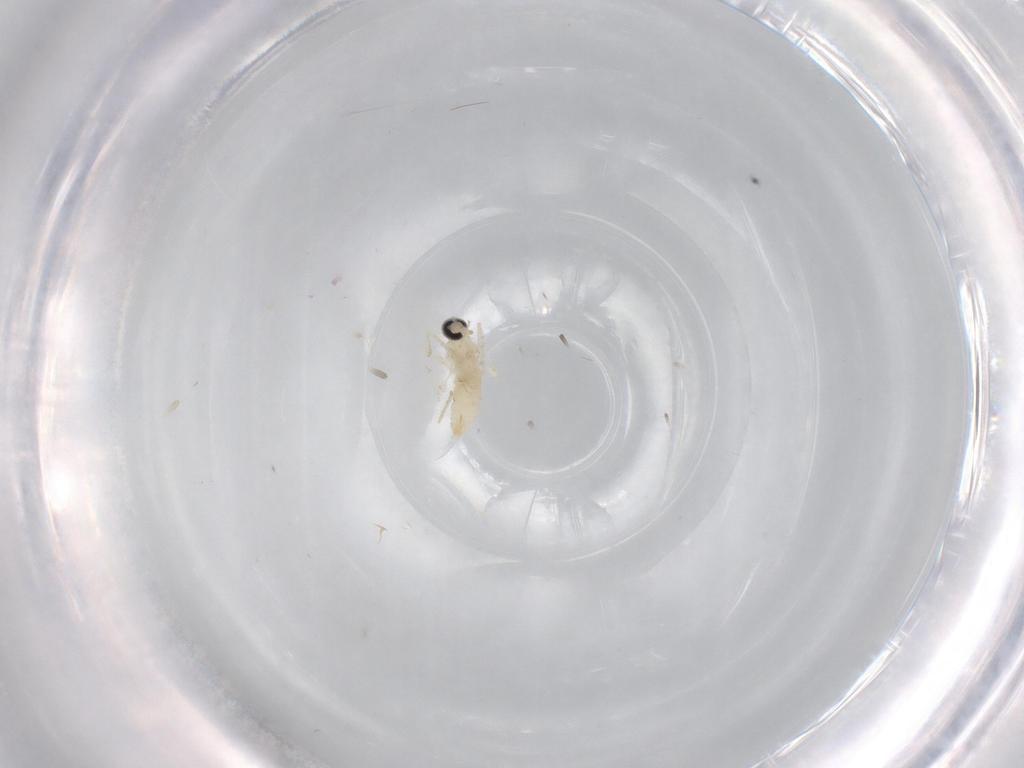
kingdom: Animalia
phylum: Arthropoda
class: Insecta
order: Diptera
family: Cecidomyiidae
